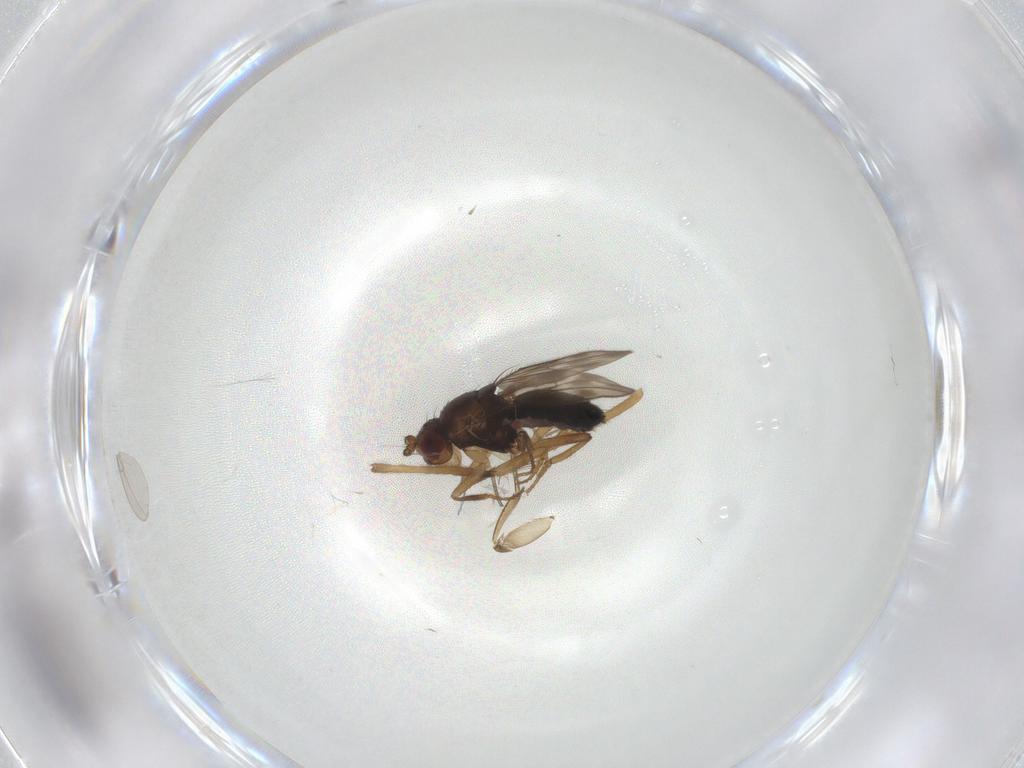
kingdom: Animalia
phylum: Arthropoda
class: Insecta
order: Diptera
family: Sphaeroceridae
